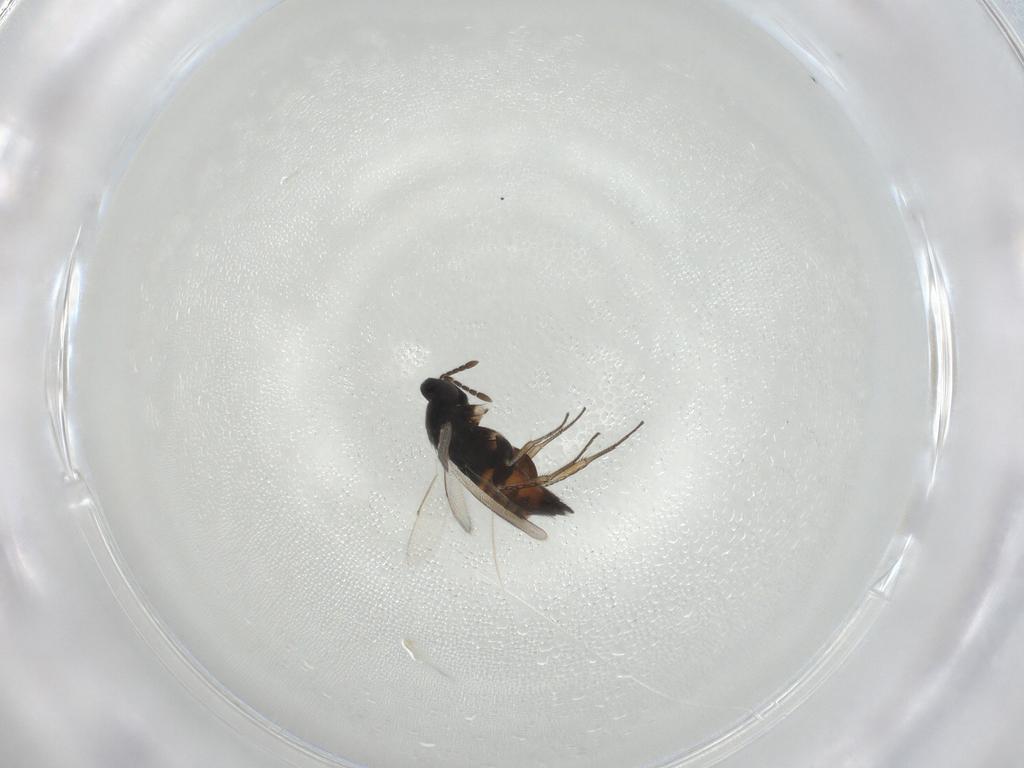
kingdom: Animalia
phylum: Arthropoda
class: Insecta
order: Hymenoptera
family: Eulophidae
